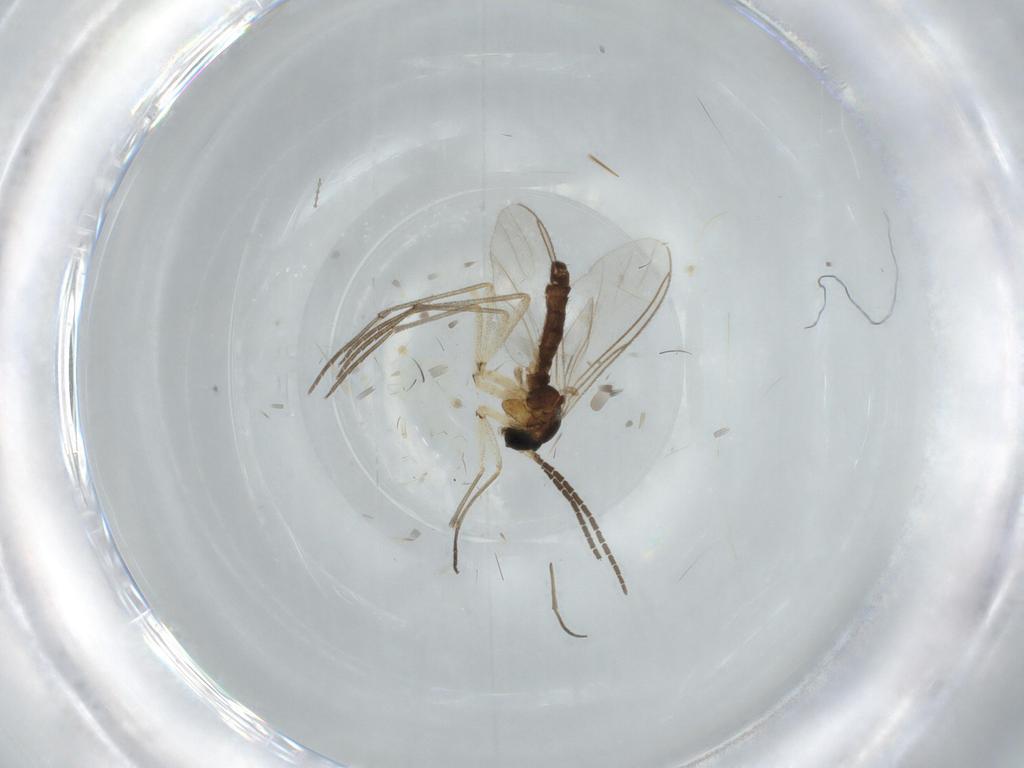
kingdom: Animalia
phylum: Arthropoda
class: Insecta
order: Diptera
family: Sciaridae
